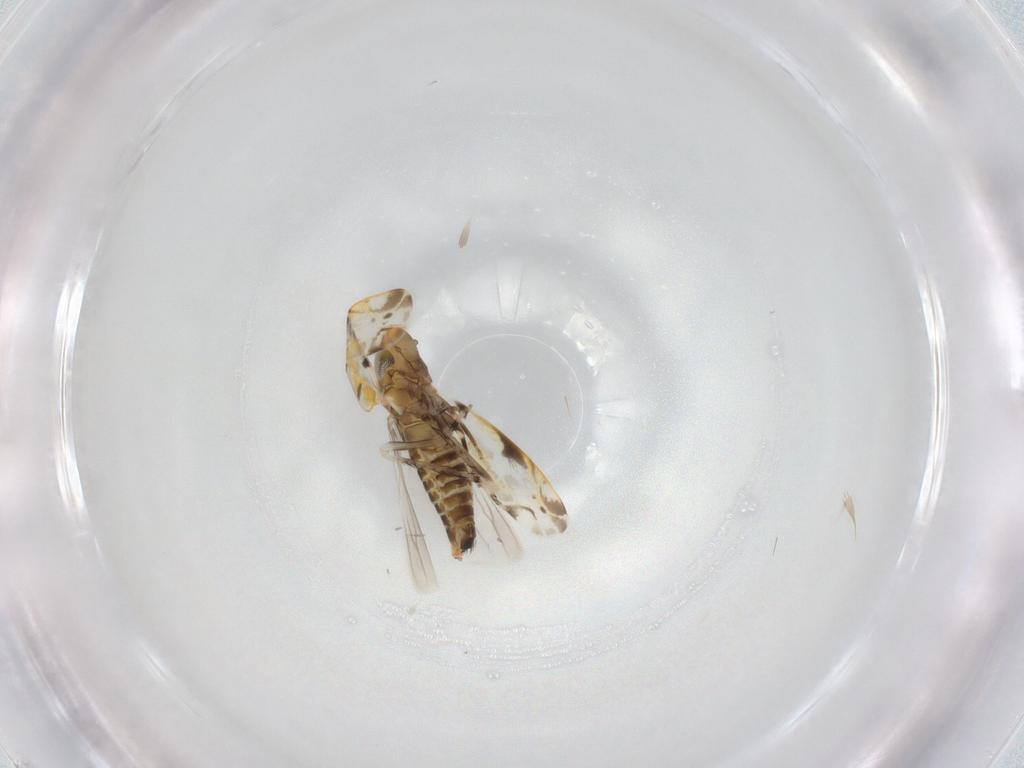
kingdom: Animalia
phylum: Arthropoda
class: Insecta
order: Hemiptera
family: Cicadellidae
